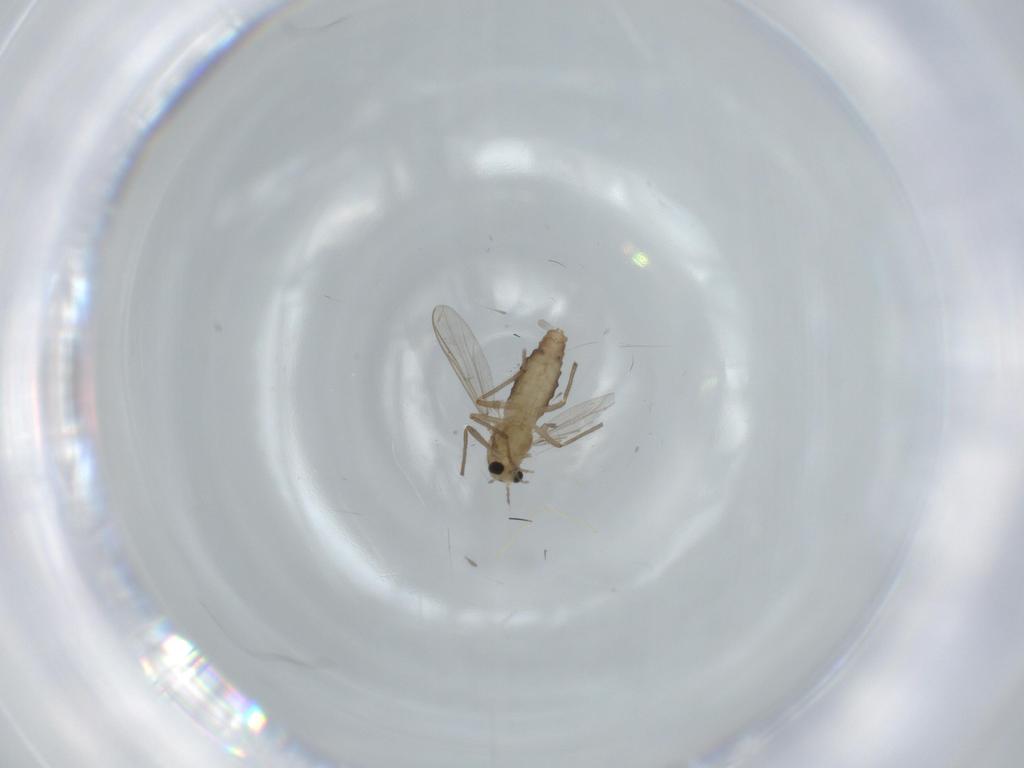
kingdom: Animalia
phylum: Arthropoda
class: Insecta
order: Diptera
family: Chironomidae
